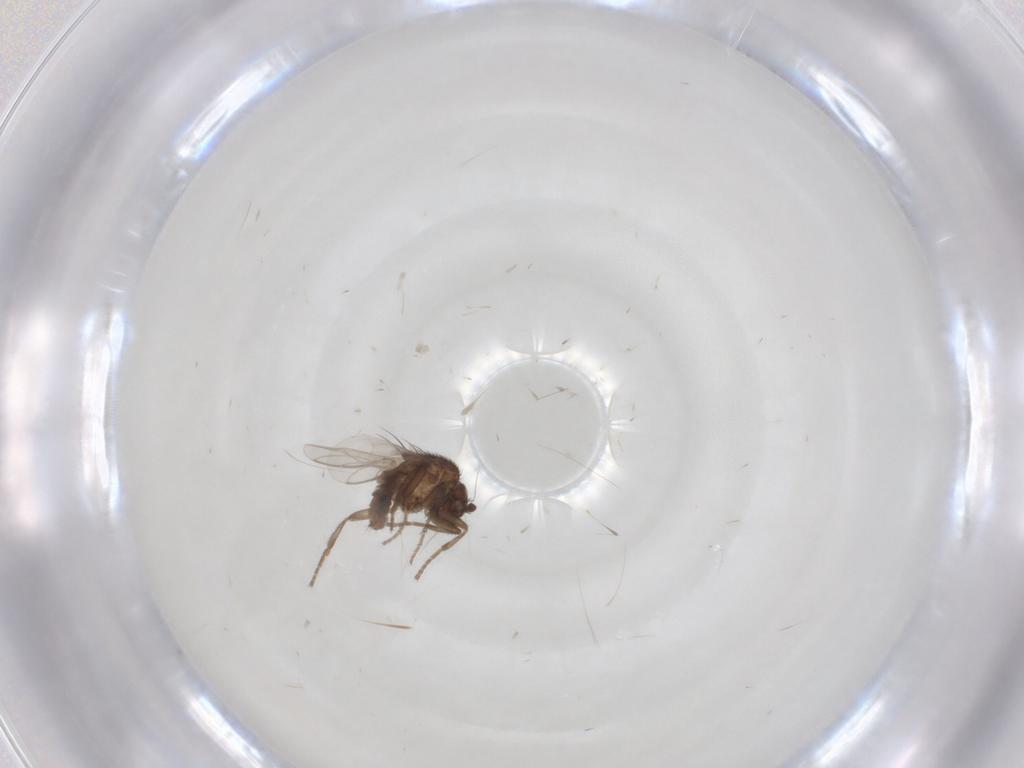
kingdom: Animalia
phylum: Arthropoda
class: Insecta
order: Diptera
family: Sphaeroceridae
